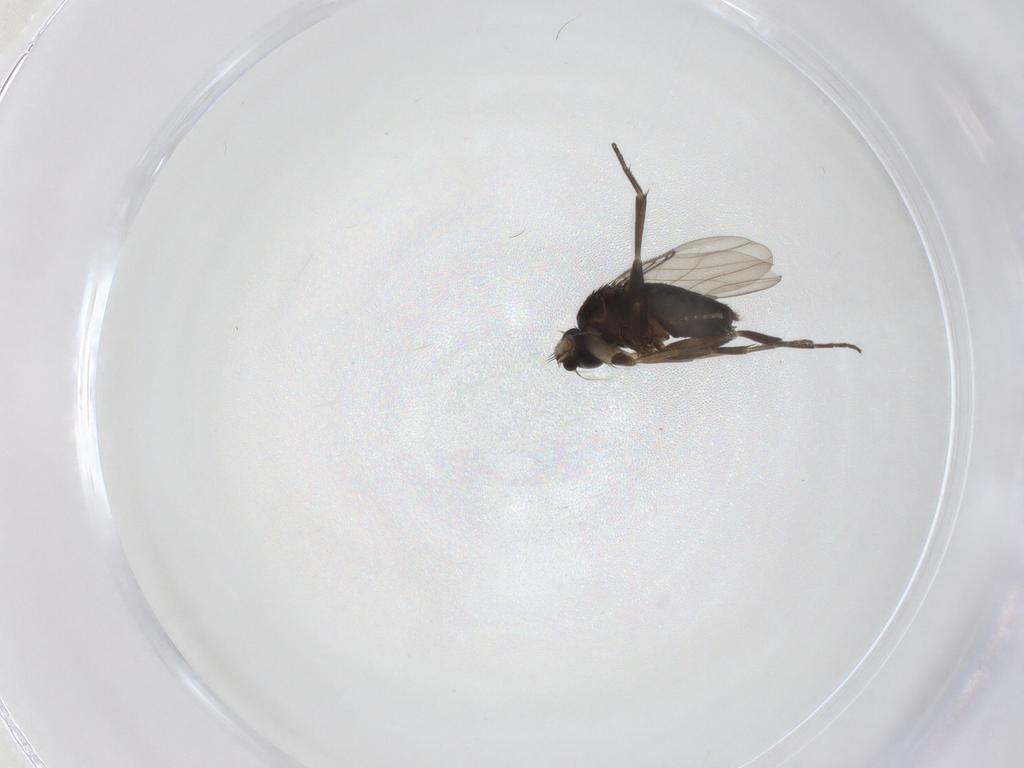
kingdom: Animalia
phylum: Arthropoda
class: Insecta
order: Diptera
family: Phoridae
